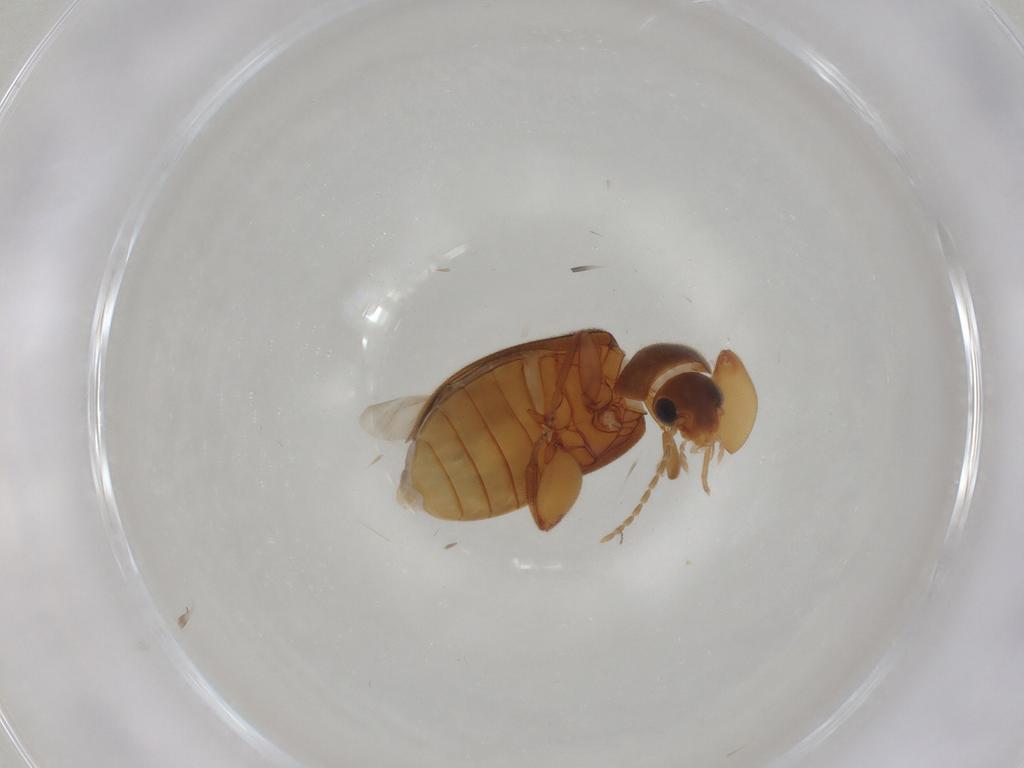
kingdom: Animalia
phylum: Arthropoda
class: Insecta
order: Coleoptera
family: Scirtidae
